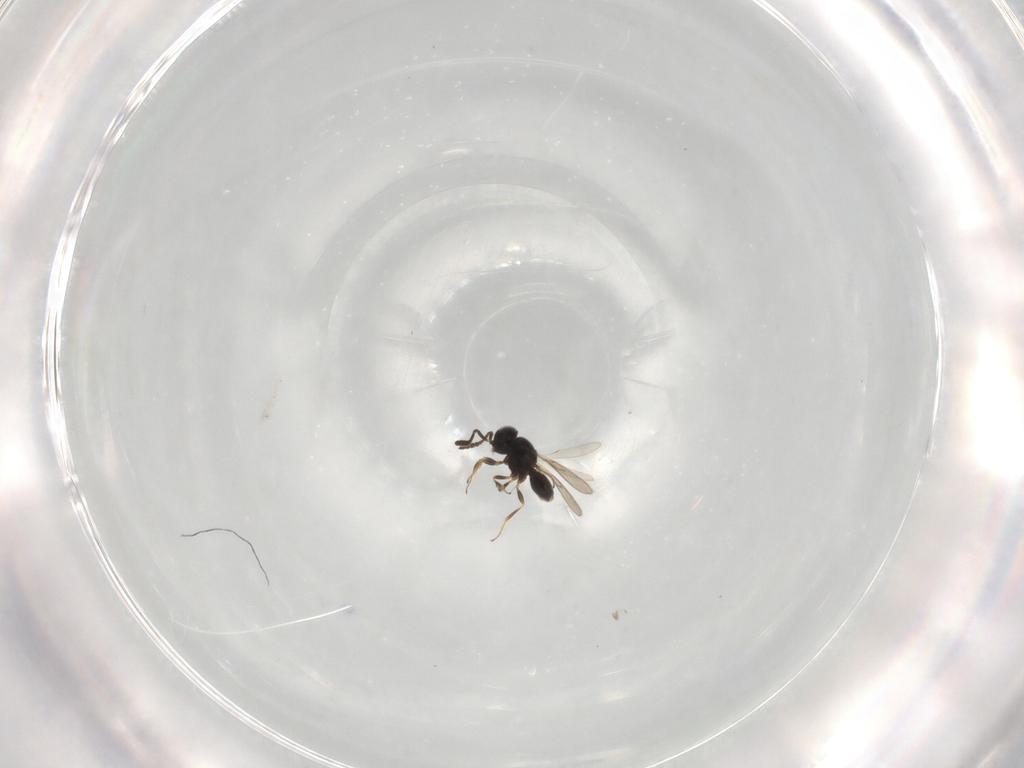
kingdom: Animalia
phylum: Arthropoda
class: Insecta
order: Hymenoptera
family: Scelionidae
